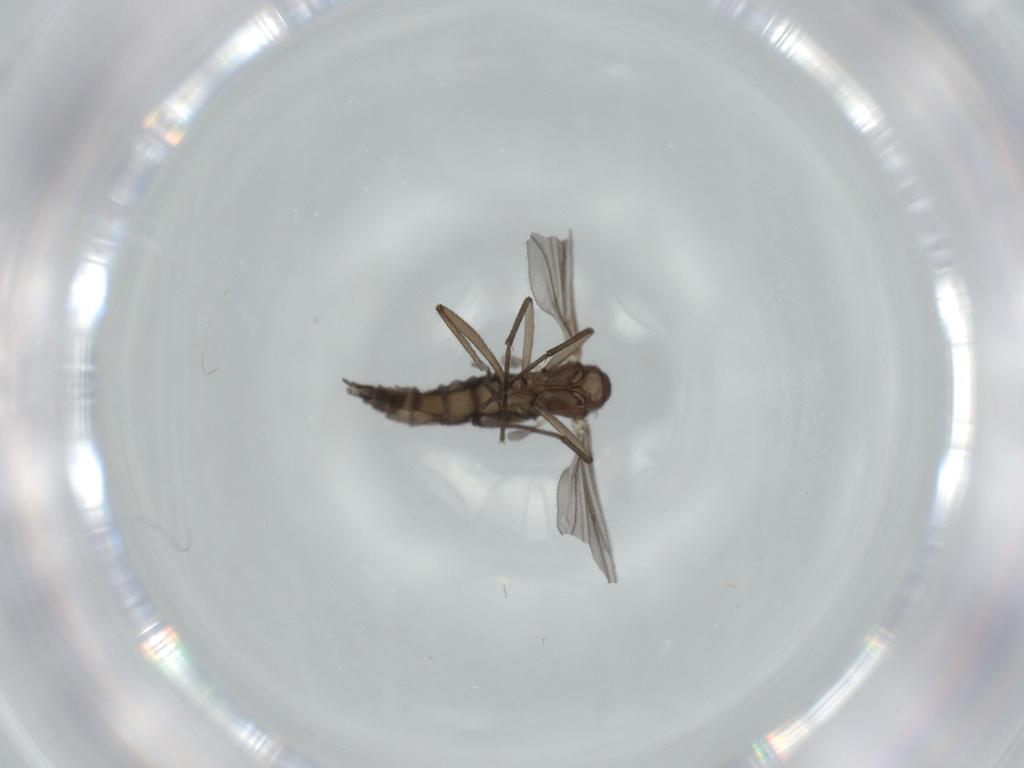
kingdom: Animalia
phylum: Arthropoda
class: Insecta
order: Diptera
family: Sciaridae
